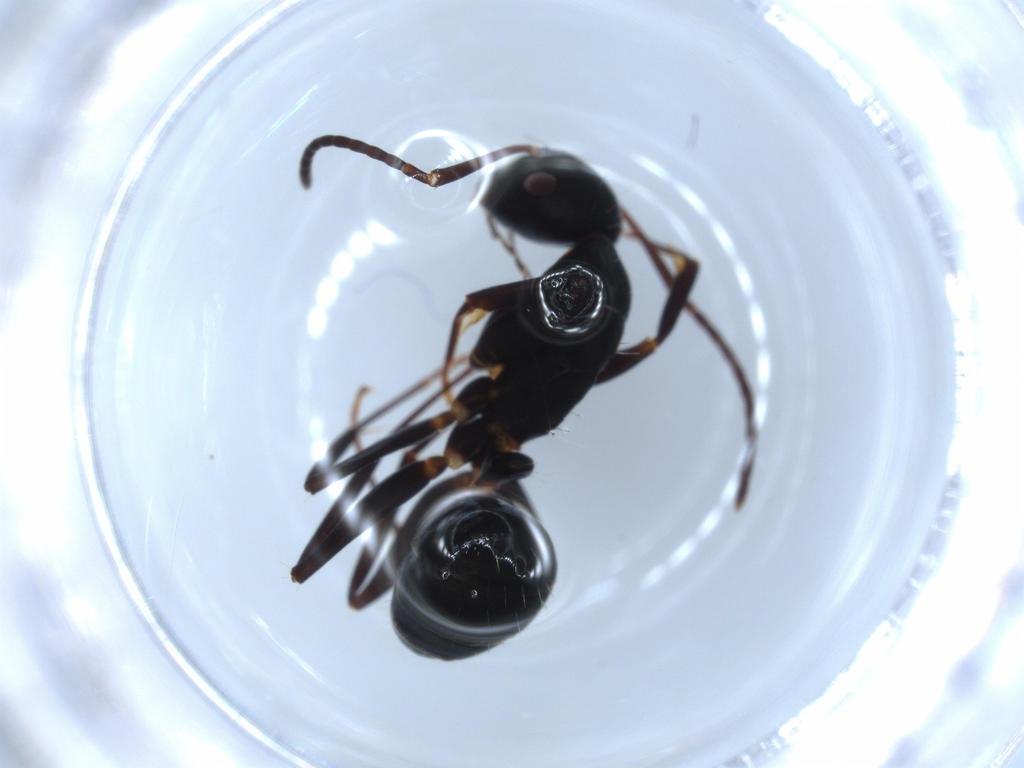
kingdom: Animalia
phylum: Arthropoda
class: Insecta
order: Hymenoptera
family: Formicidae
